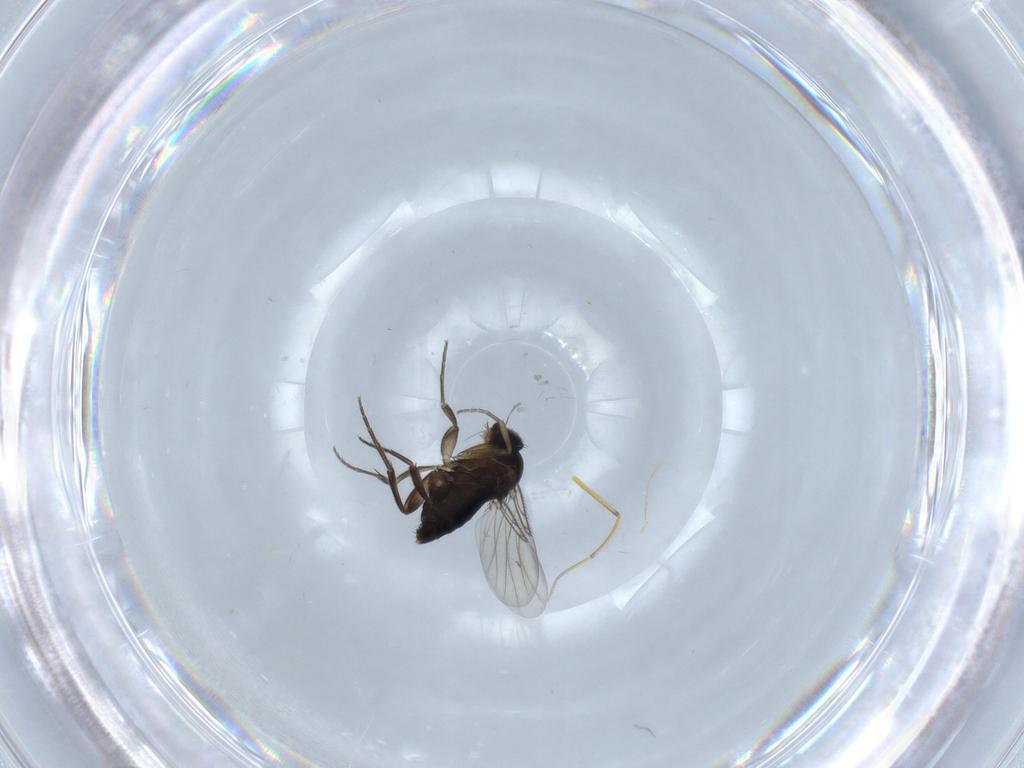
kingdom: Animalia
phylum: Arthropoda
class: Insecta
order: Diptera
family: Phoridae
